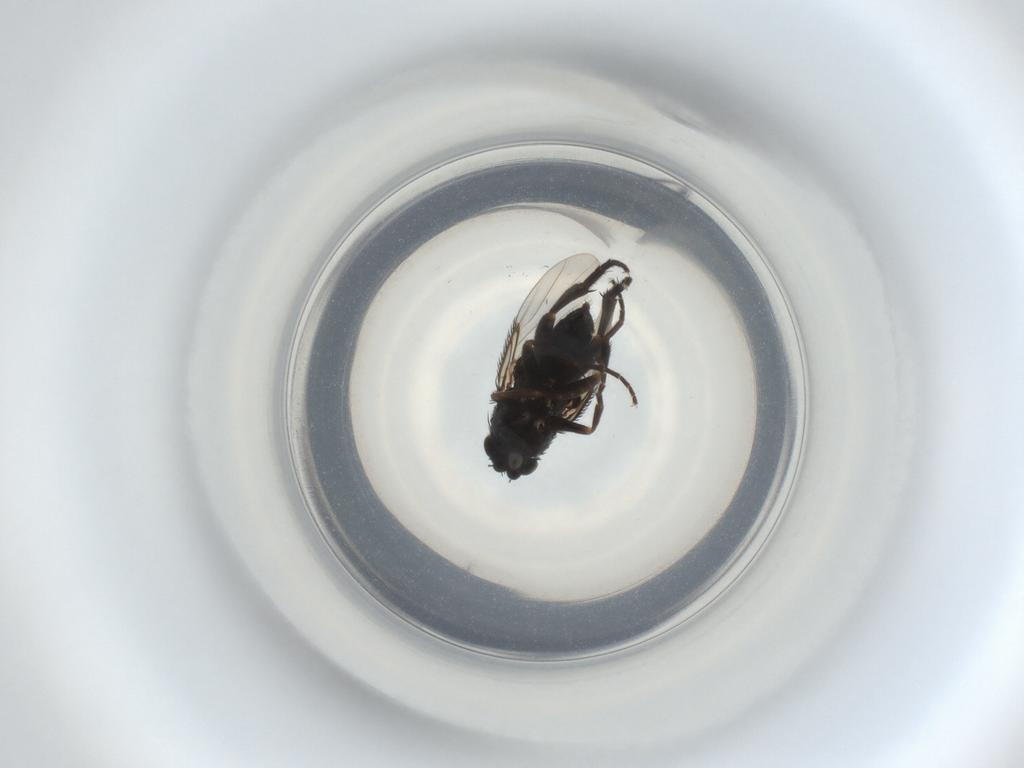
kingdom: Animalia
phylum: Arthropoda
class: Insecta
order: Diptera
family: Phoridae
